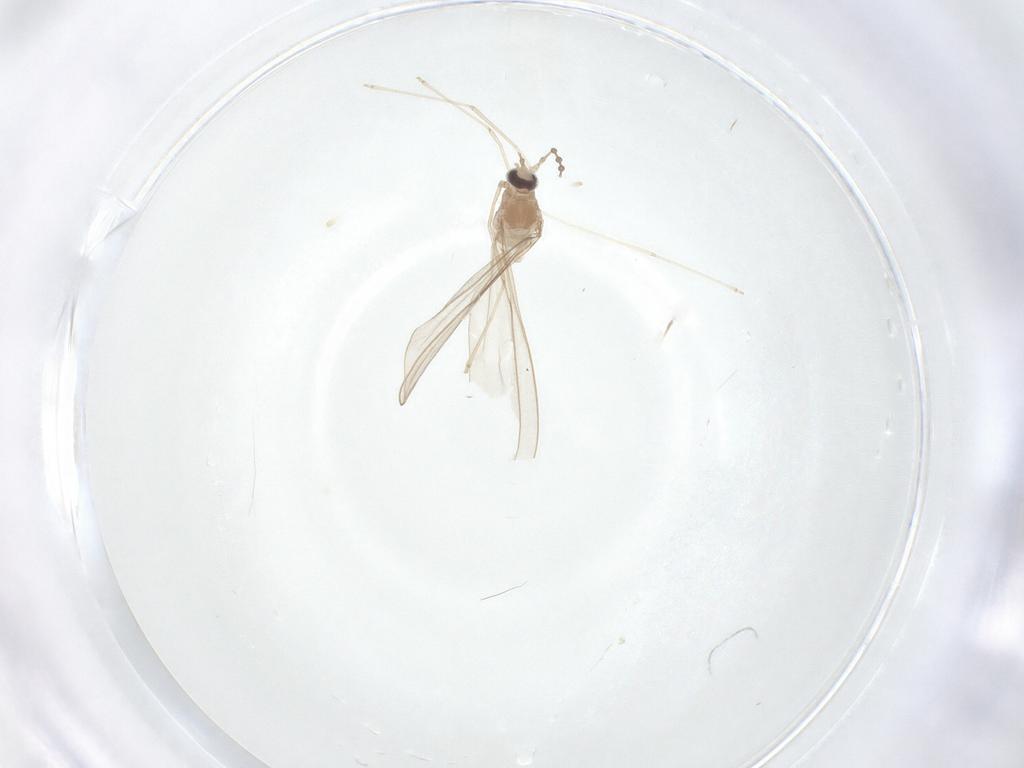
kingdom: Animalia
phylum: Arthropoda
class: Insecta
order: Diptera
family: Cecidomyiidae
